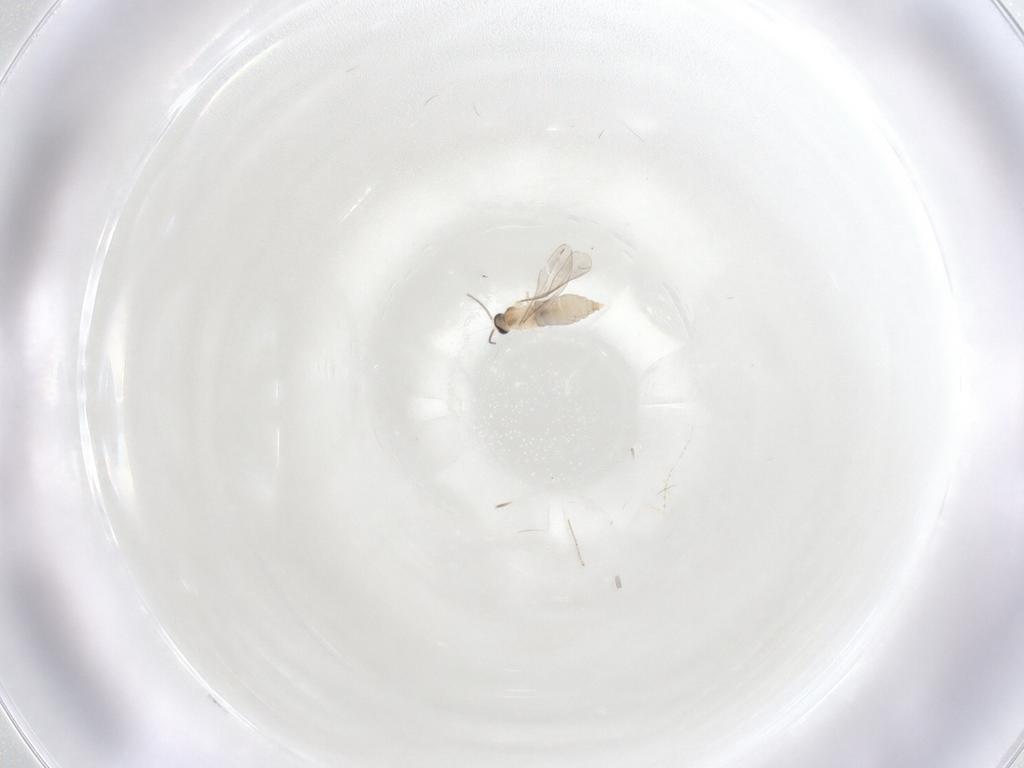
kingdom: Animalia
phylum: Arthropoda
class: Insecta
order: Diptera
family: Cecidomyiidae
